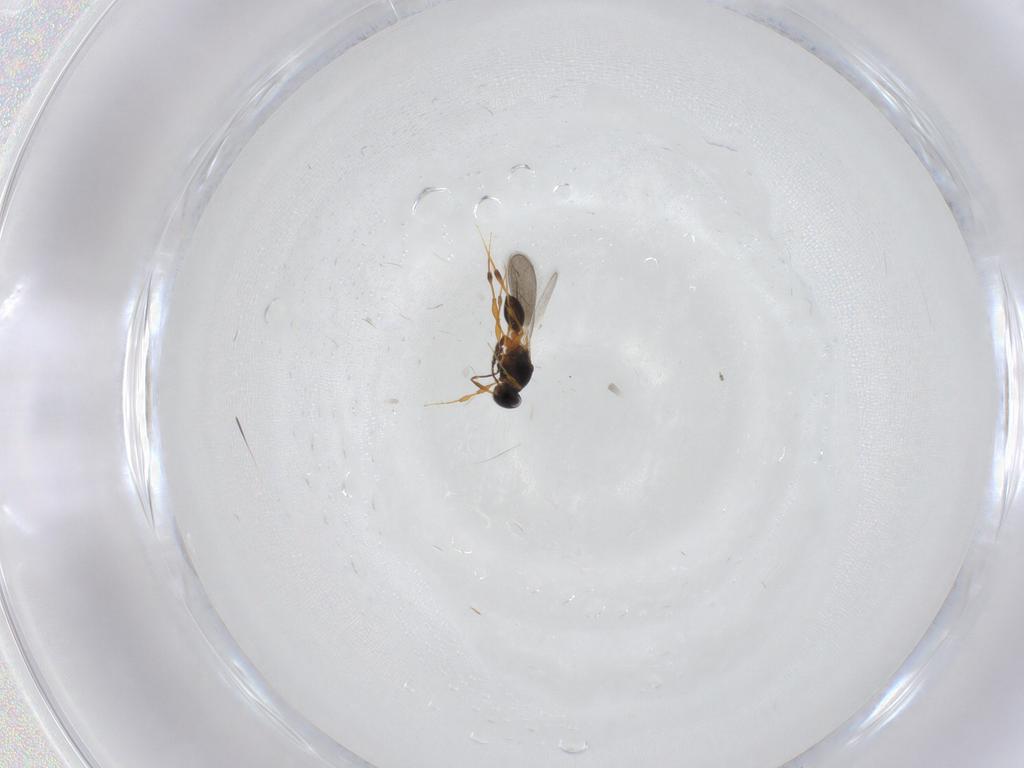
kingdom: Animalia
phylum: Arthropoda
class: Insecta
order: Hymenoptera
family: Platygastridae
